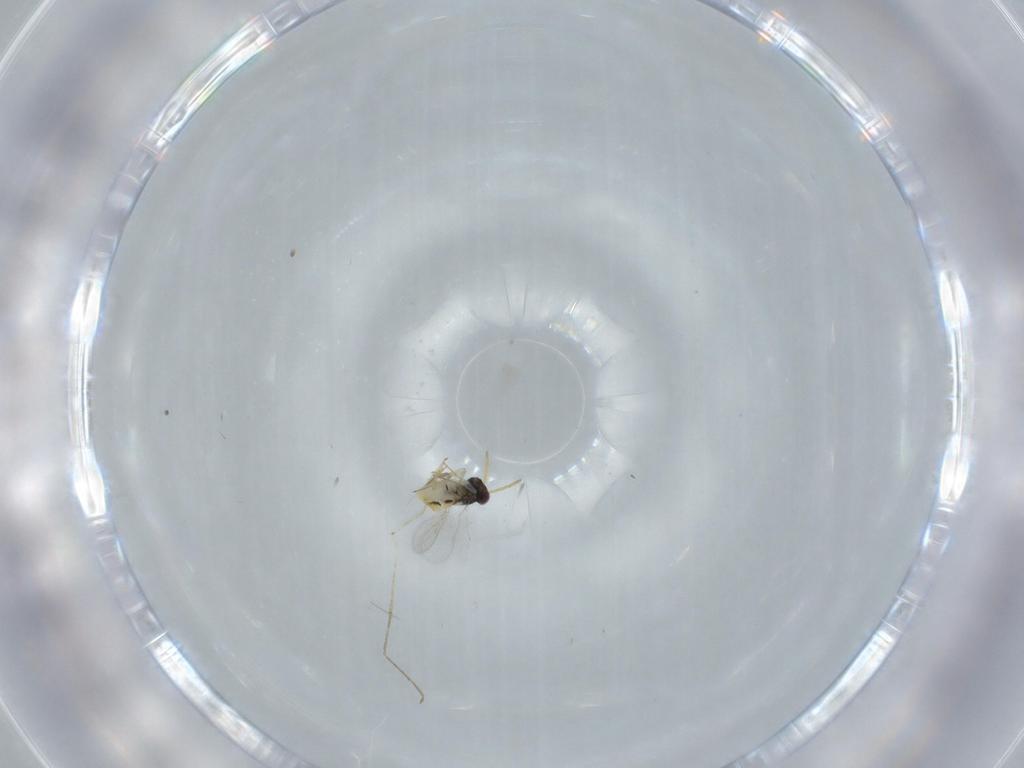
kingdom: Animalia
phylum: Arthropoda
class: Insecta
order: Hymenoptera
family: Aphelinidae
